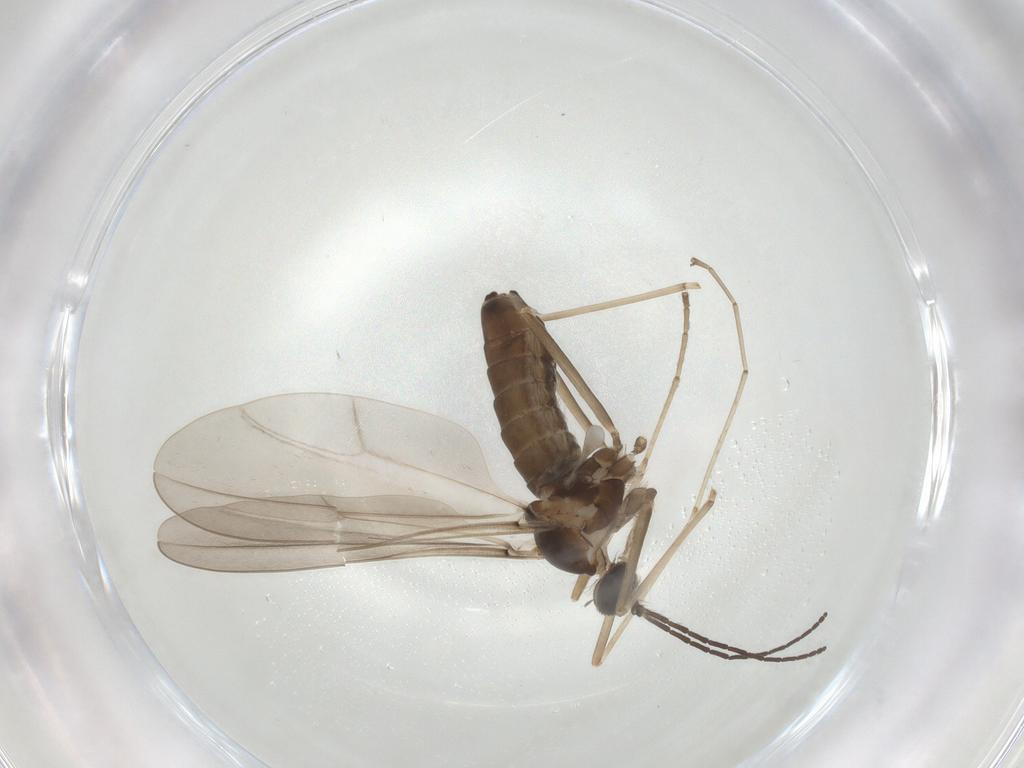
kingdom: Animalia
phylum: Arthropoda
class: Insecta
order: Diptera
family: Cecidomyiidae
